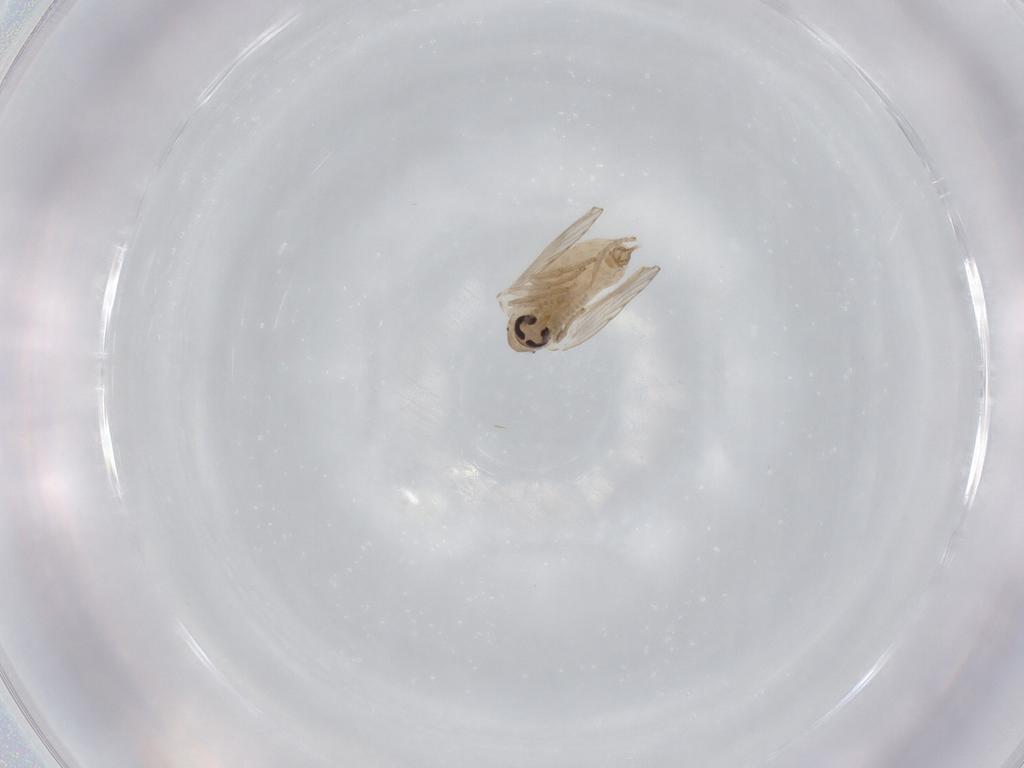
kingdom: Animalia
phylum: Arthropoda
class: Insecta
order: Diptera
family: Psychodidae
